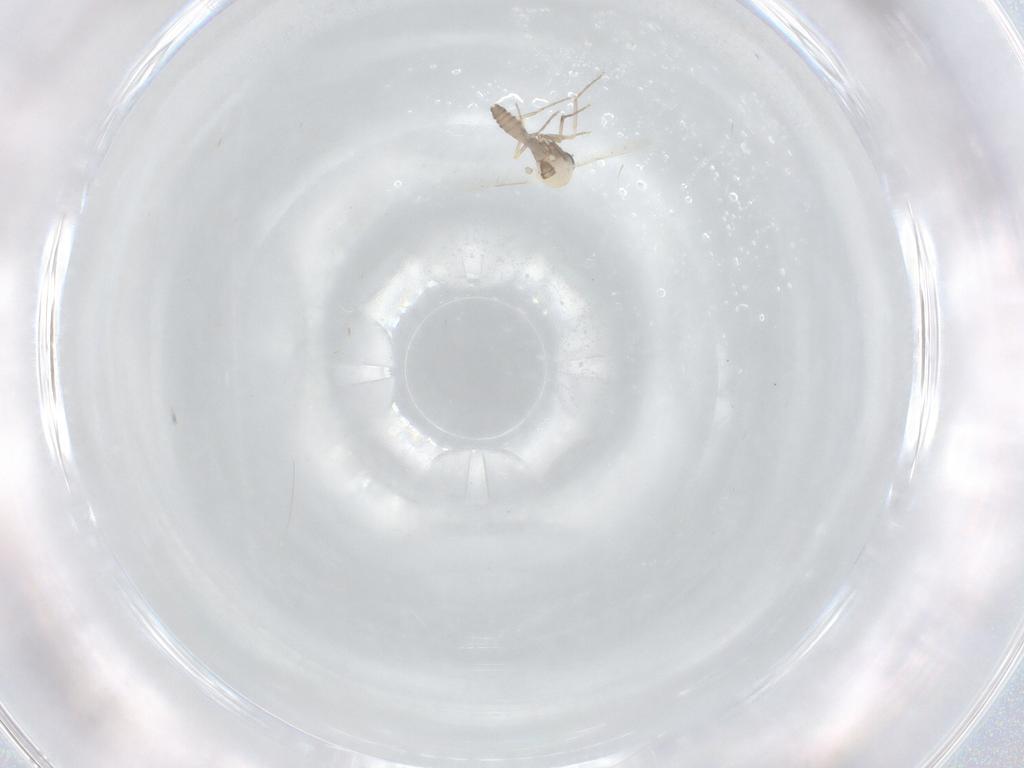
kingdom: Animalia
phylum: Arthropoda
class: Insecta
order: Diptera
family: Ceratopogonidae
